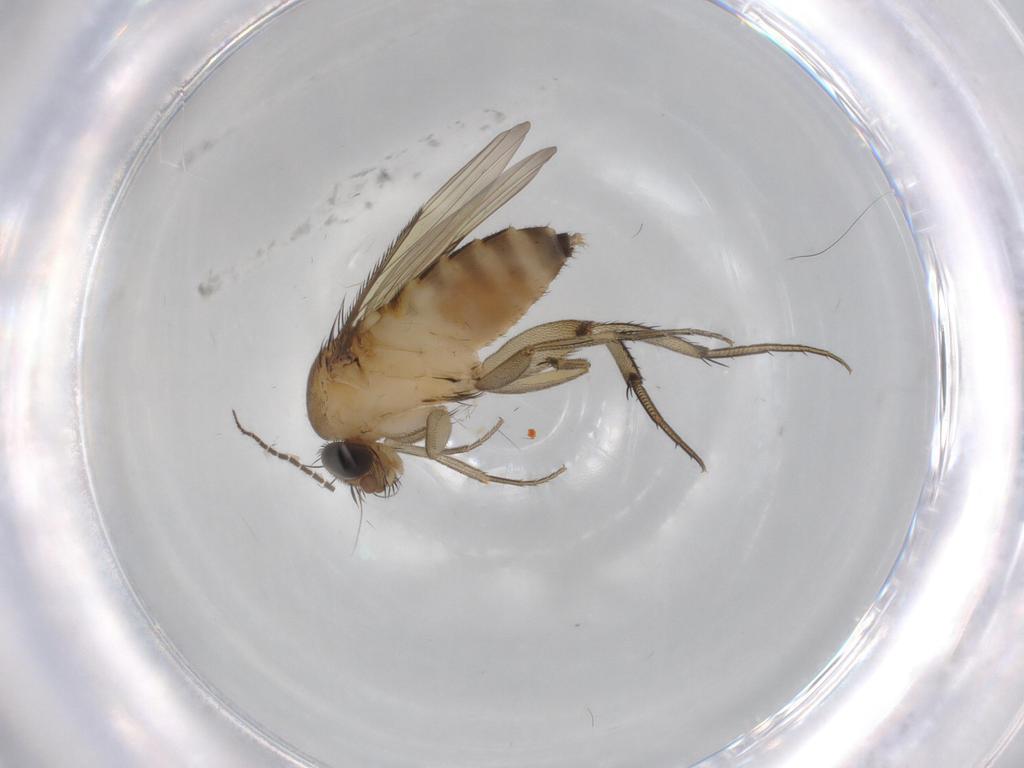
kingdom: Animalia
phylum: Arthropoda
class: Insecta
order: Diptera
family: Phoridae
